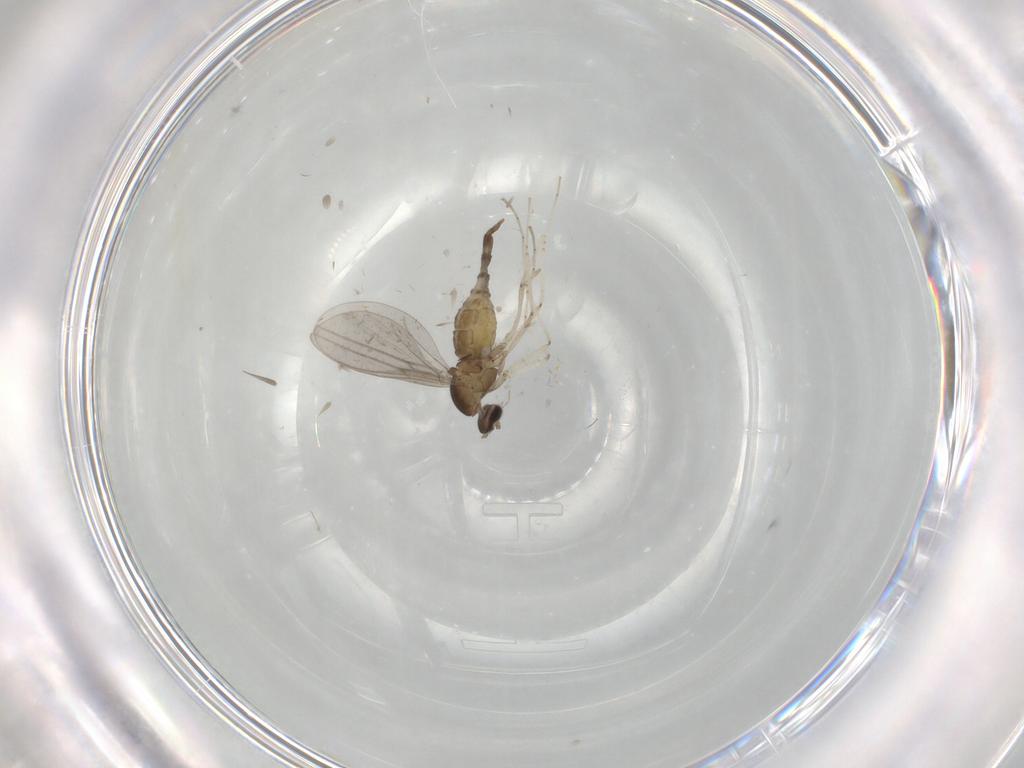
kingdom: Animalia
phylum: Arthropoda
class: Insecta
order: Diptera
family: Cecidomyiidae
